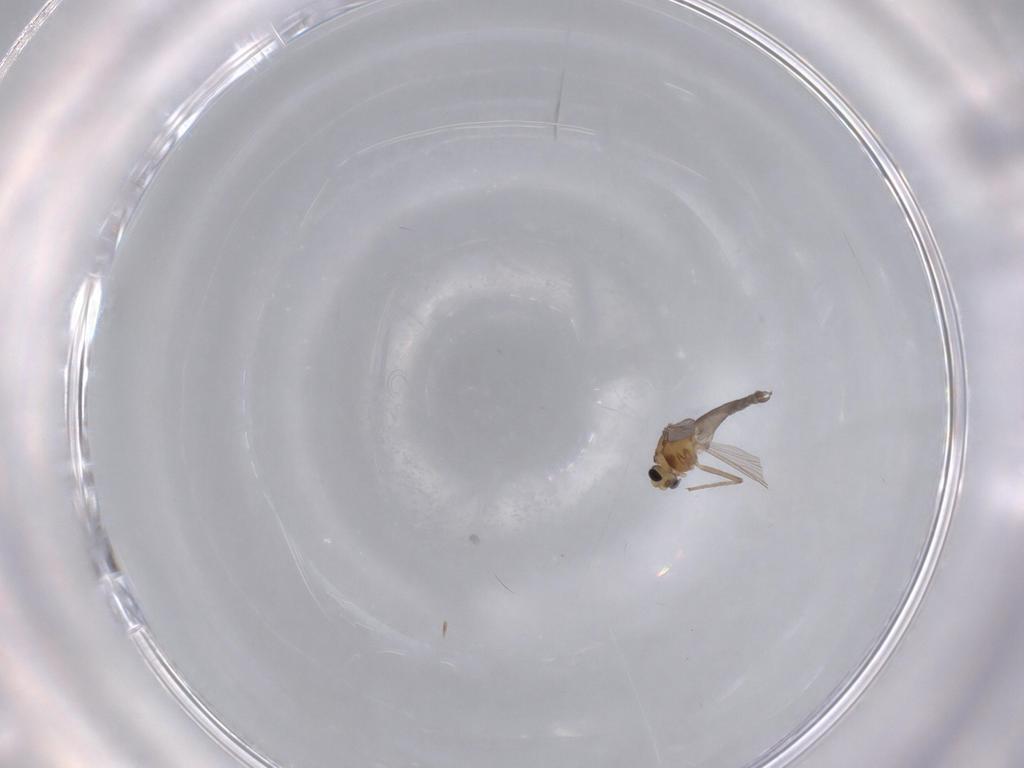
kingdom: Animalia
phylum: Arthropoda
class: Insecta
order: Diptera
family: Chironomidae
